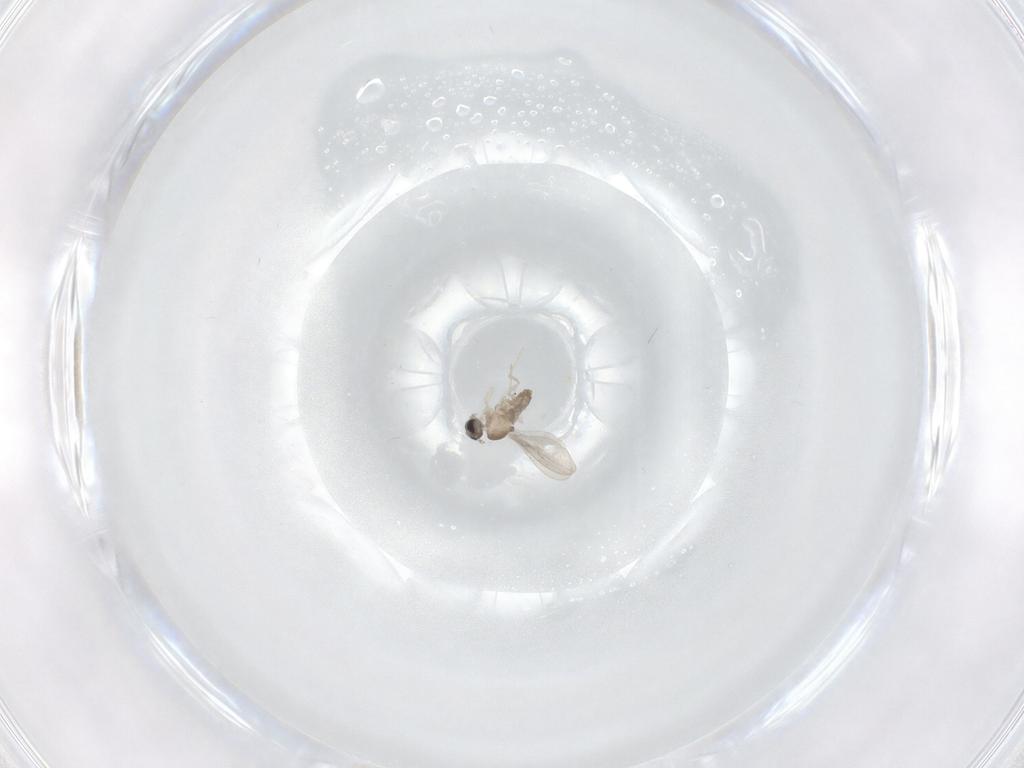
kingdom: Animalia
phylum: Arthropoda
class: Insecta
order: Diptera
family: Cecidomyiidae
